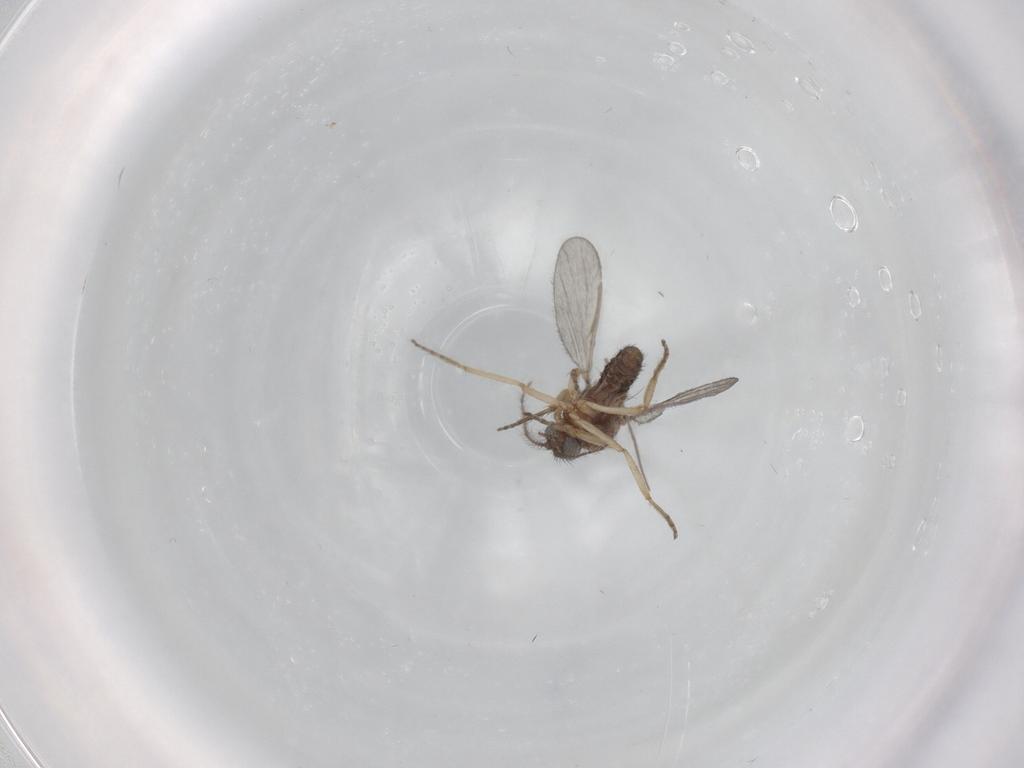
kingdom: Animalia
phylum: Arthropoda
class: Insecta
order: Diptera
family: Ceratopogonidae
